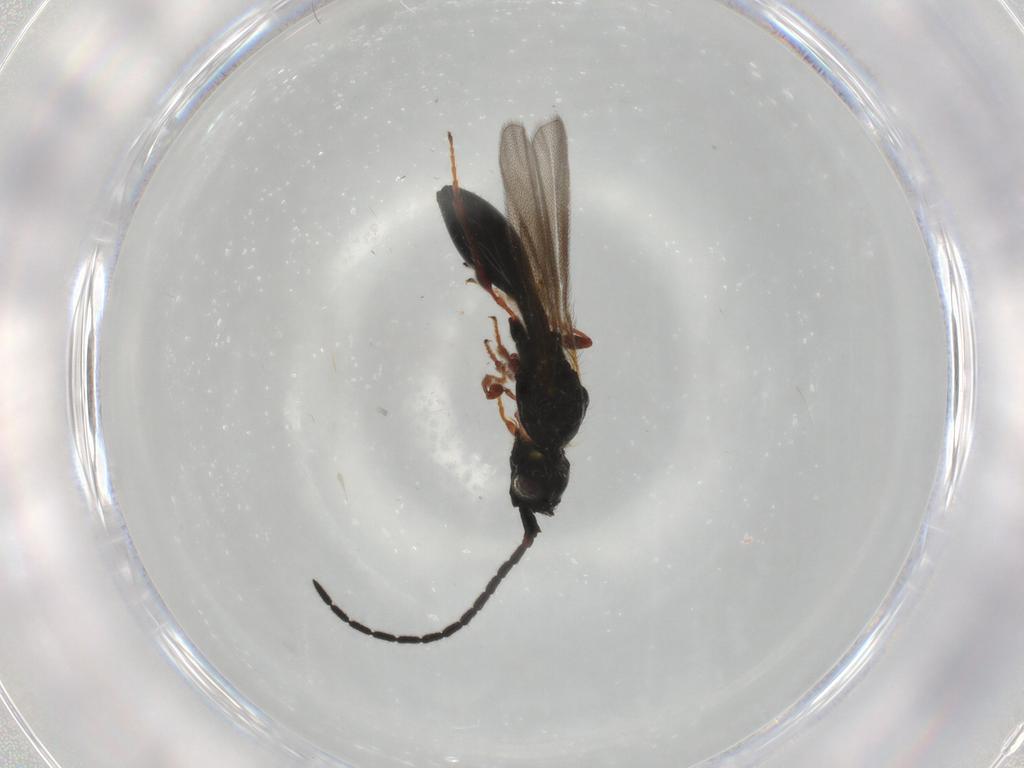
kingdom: Animalia
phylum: Arthropoda
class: Insecta
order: Hymenoptera
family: Diapriidae
